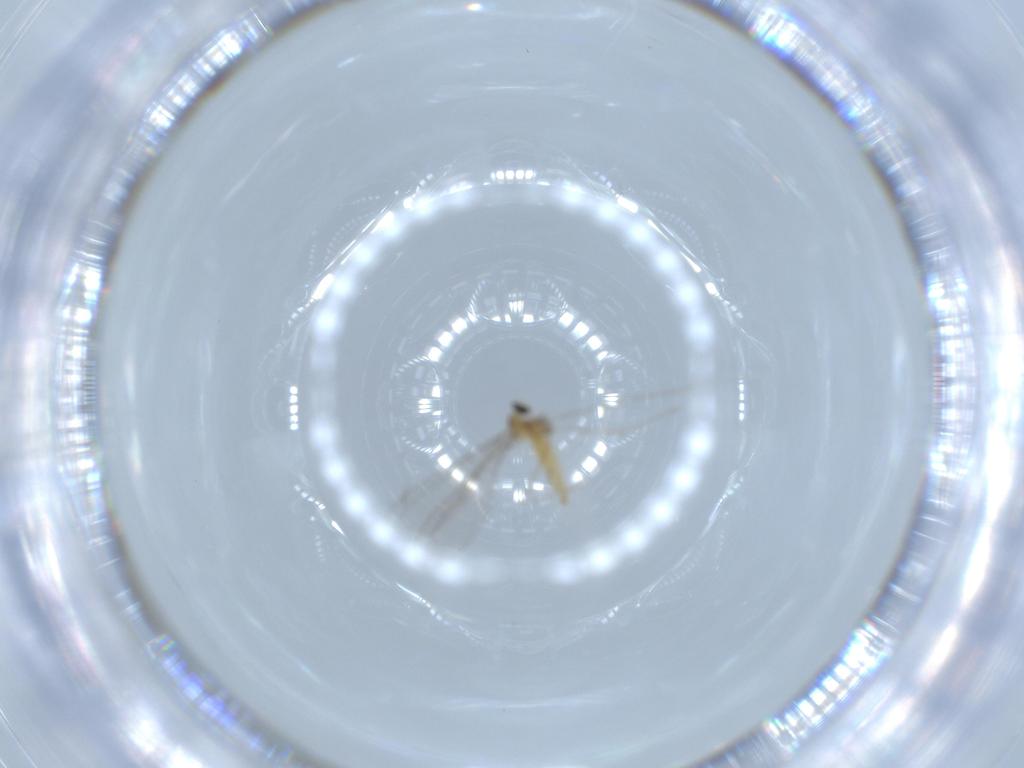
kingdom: Animalia
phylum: Arthropoda
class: Insecta
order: Diptera
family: Cecidomyiidae
